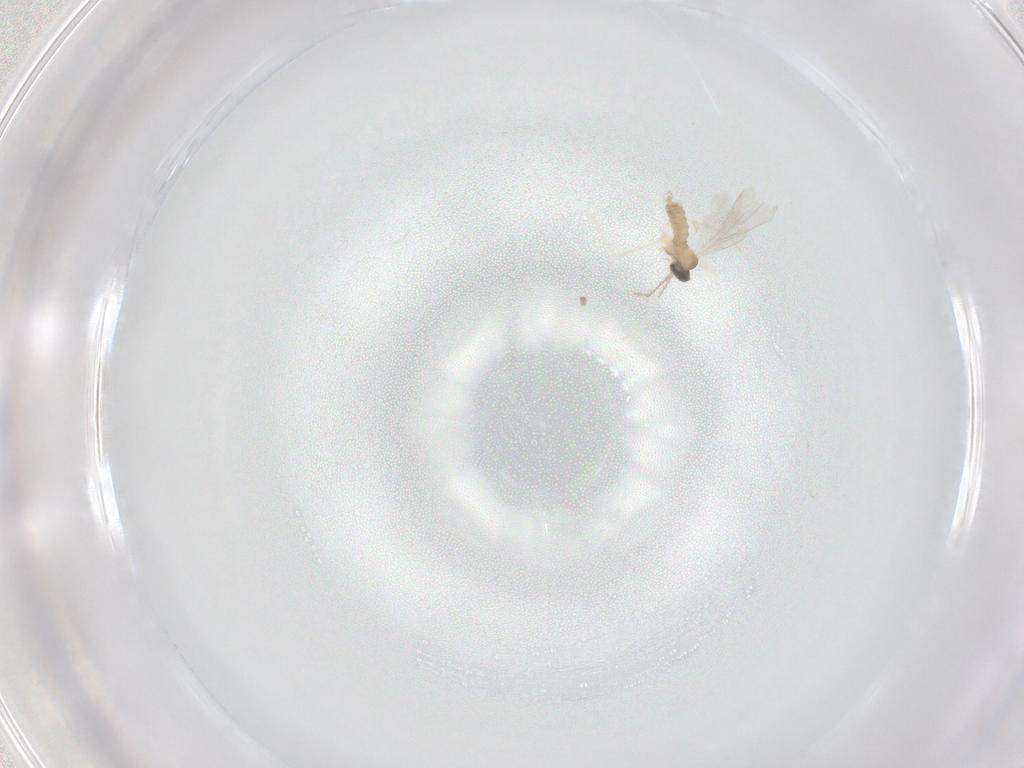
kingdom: Animalia
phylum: Arthropoda
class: Insecta
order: Diptera
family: Cecidomyiidae
